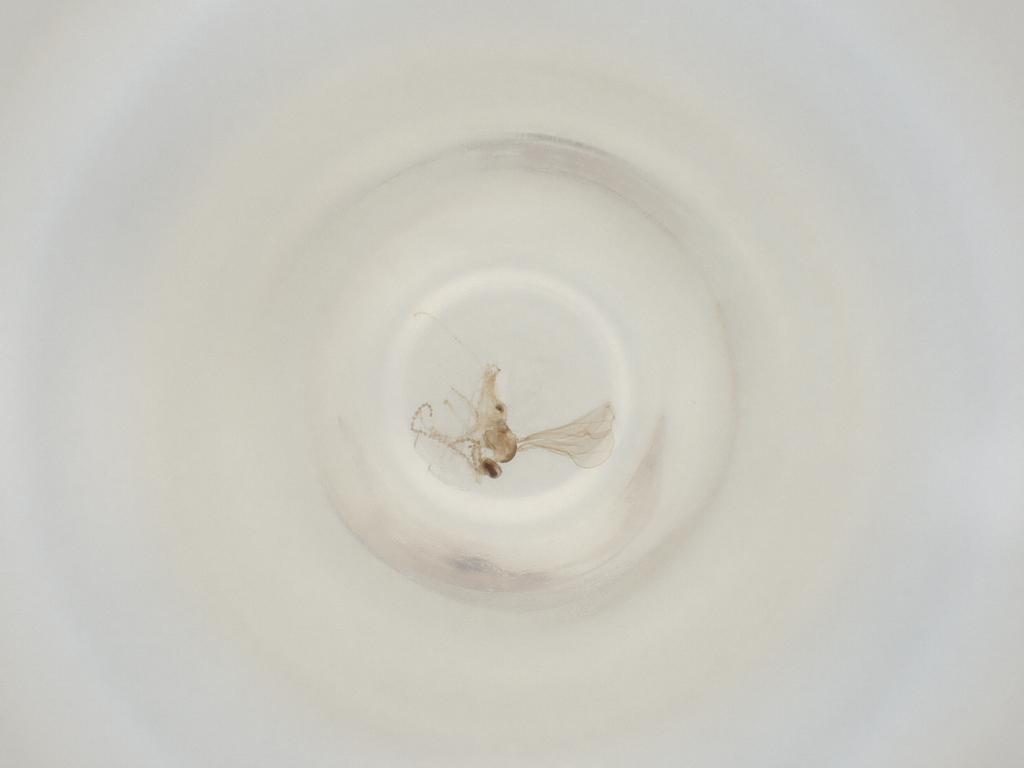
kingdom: Animalia
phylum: Arthropoda
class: Insecta
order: Diptera
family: Cecidomyiidae
